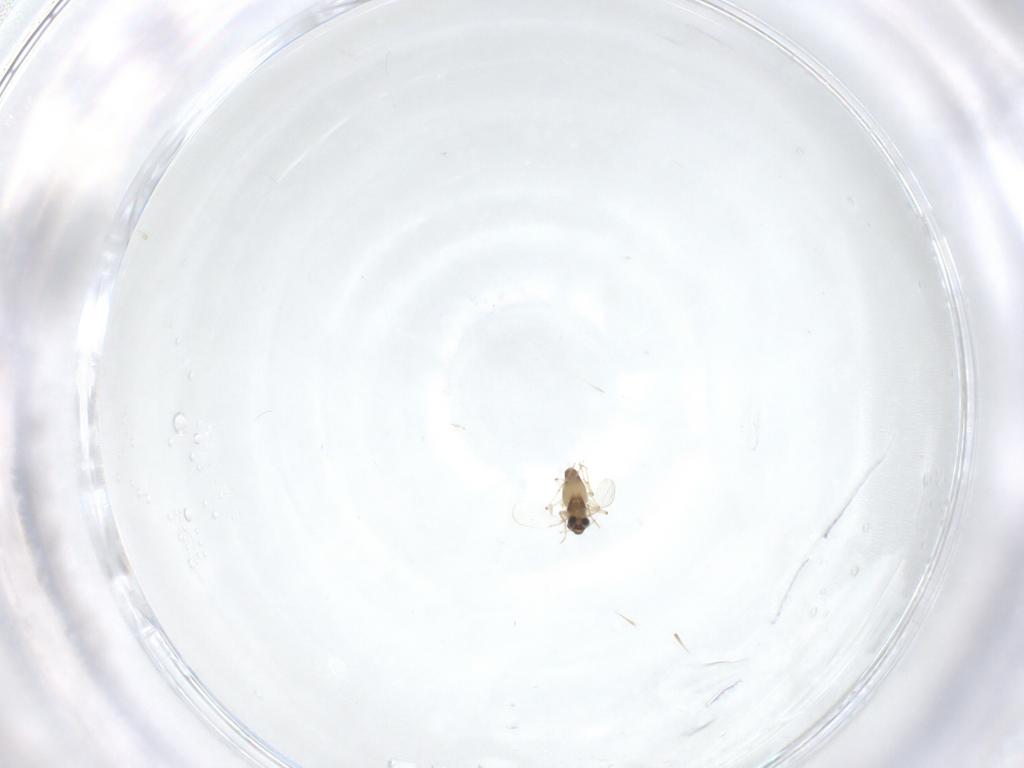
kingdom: Animalia
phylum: Arthropoda
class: Insecta
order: Diptera
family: Chironomidae
